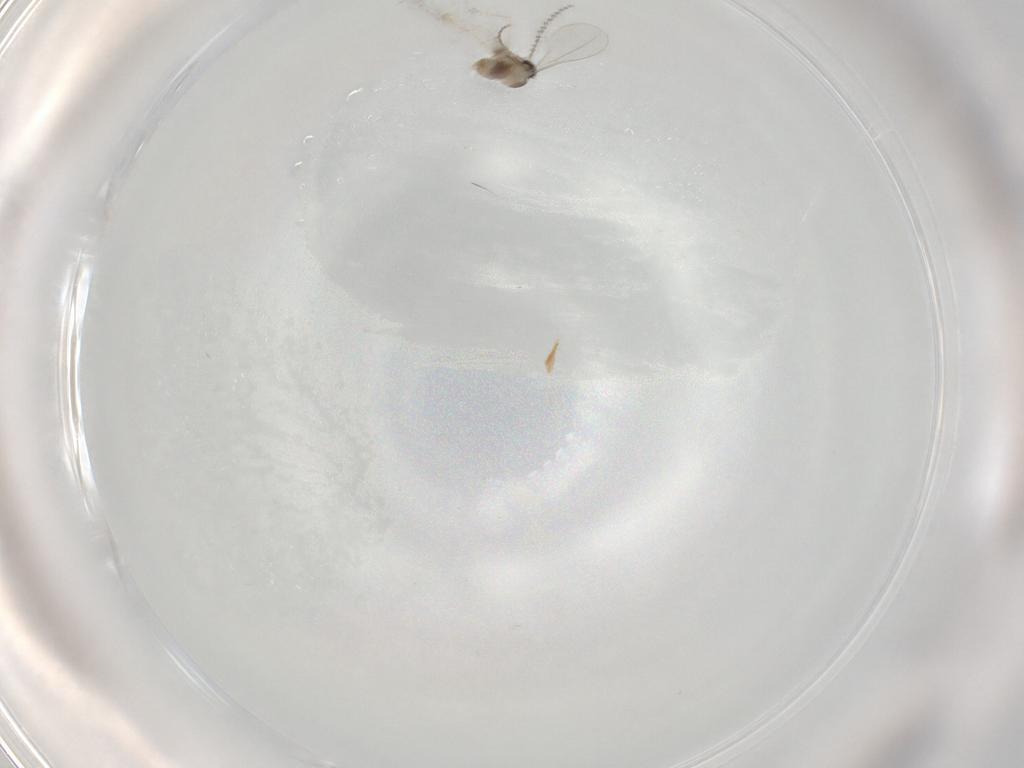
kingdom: Animalia
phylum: Arthropoda
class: Insecta
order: Diptera
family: Cecidomyiidae
